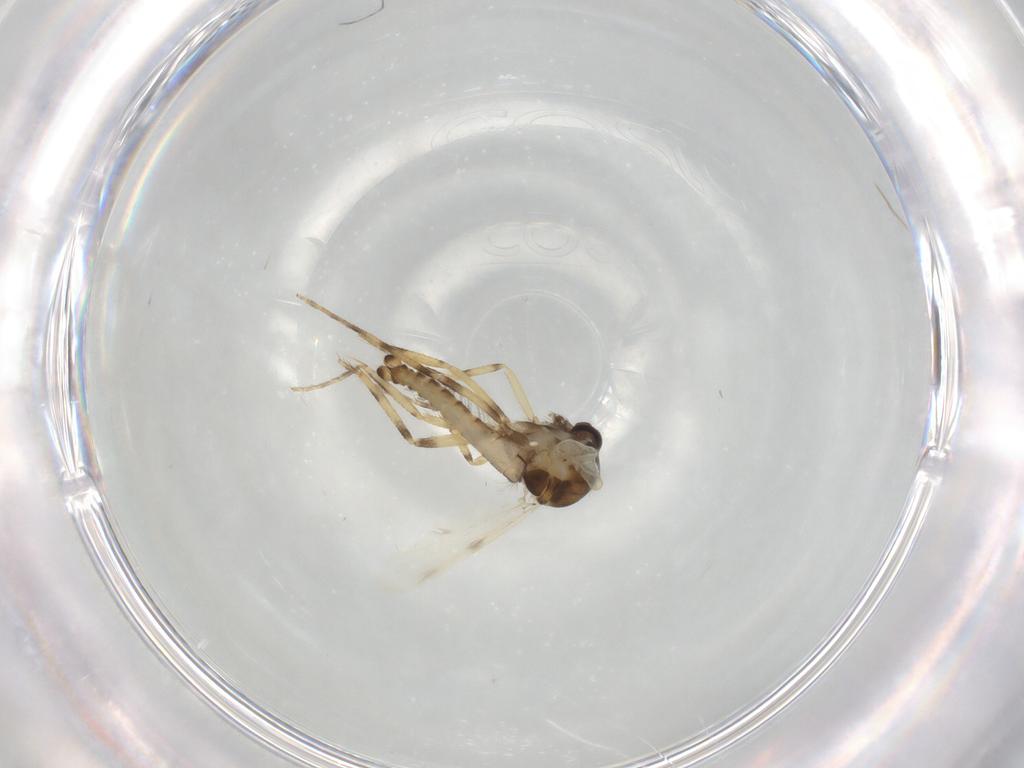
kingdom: Animalia
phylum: Arthropoda
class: Insecta
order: Diptera
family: Ceratopogonidae
